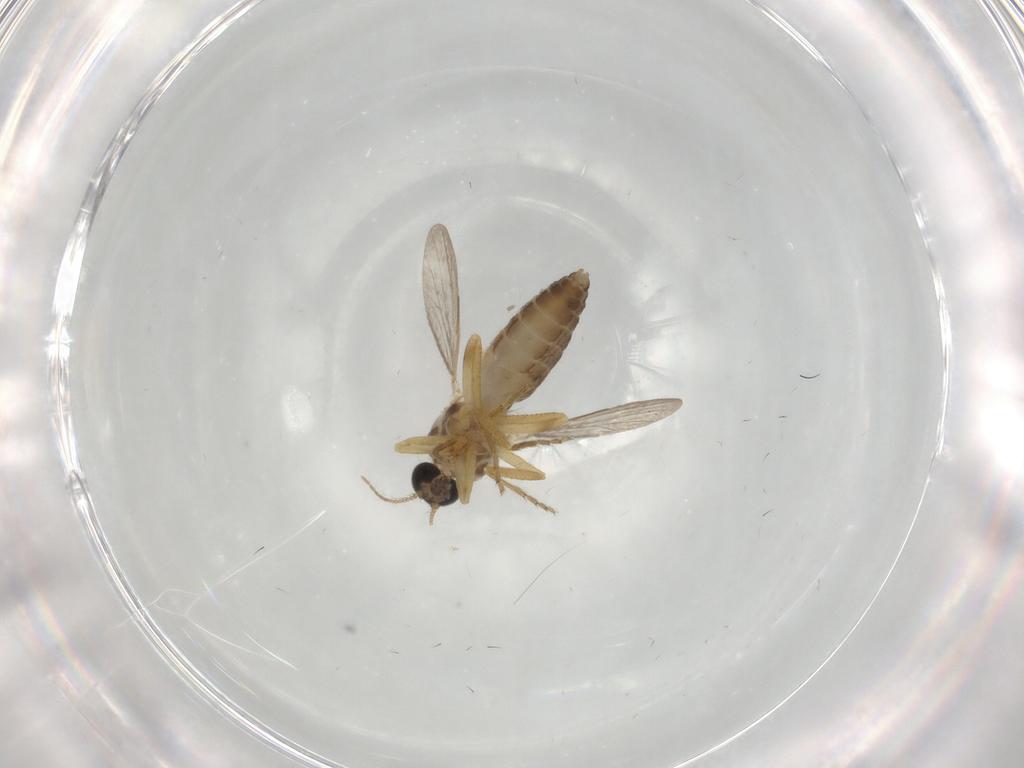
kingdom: Animalia
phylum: Arthropoda
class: Insecta
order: Diptera
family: Ceratopogonidae
